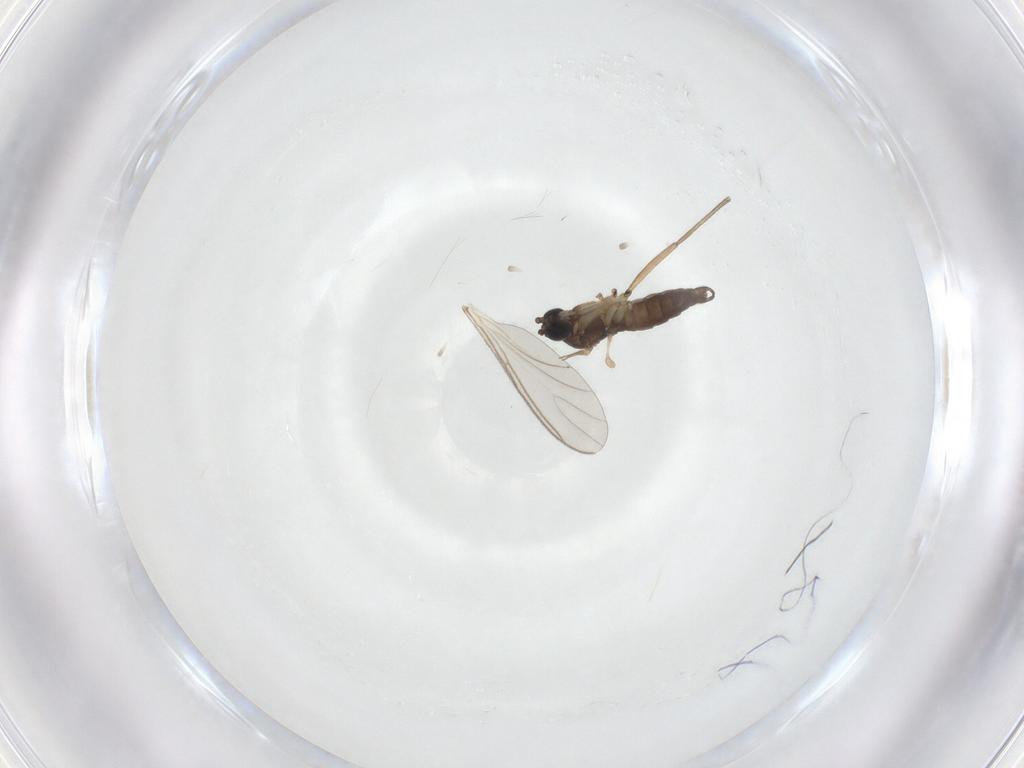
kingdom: Animalia
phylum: Arthropoda
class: Insecta
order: Diptera
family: Sciaridae
